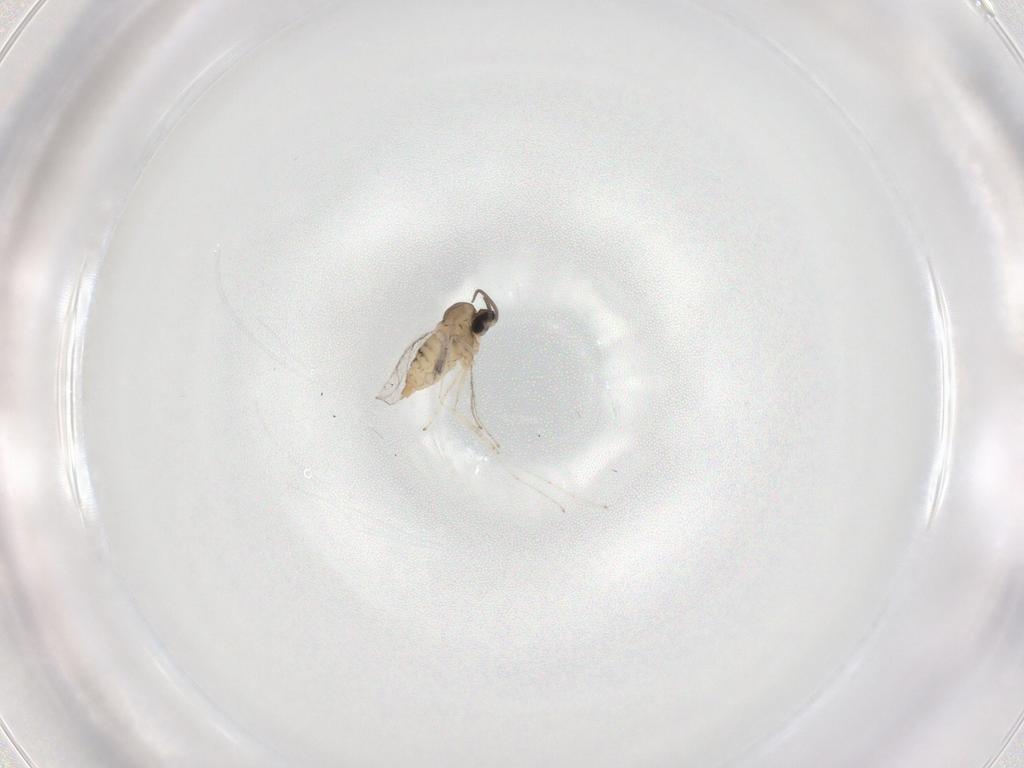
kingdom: Animalia
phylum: Arthropoda
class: Insecta
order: Diptera
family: Cecidomyiidae
